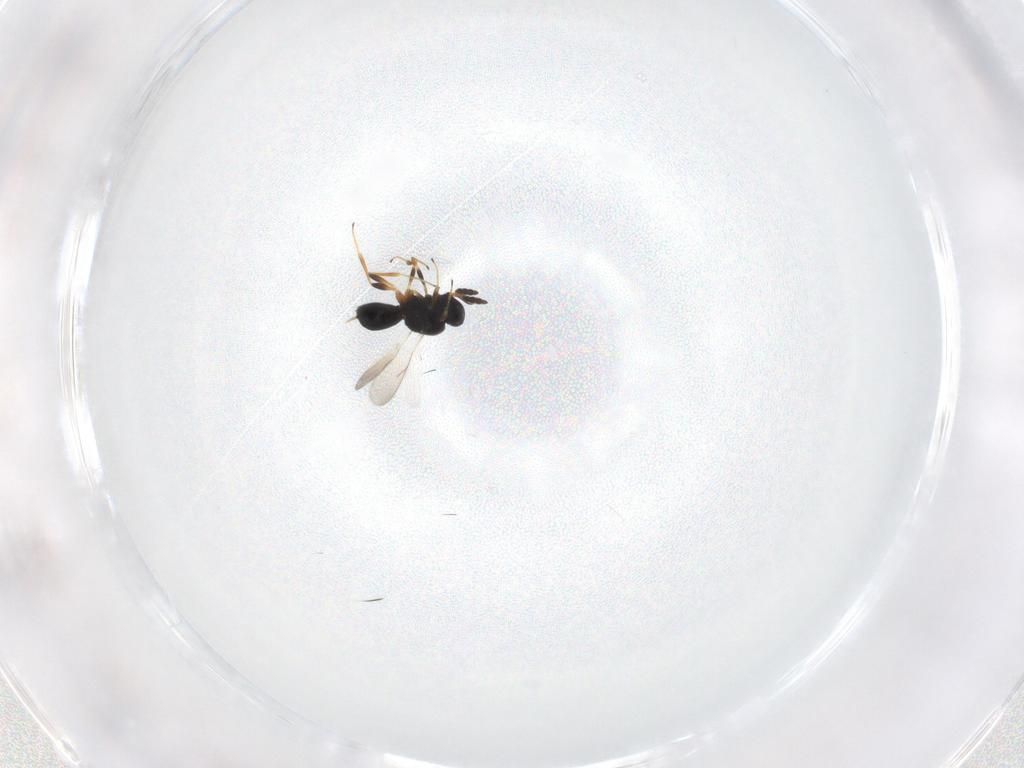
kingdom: Animalia
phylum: Arthropoda
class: Insecta
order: Hymenoptera
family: Scelionidae
